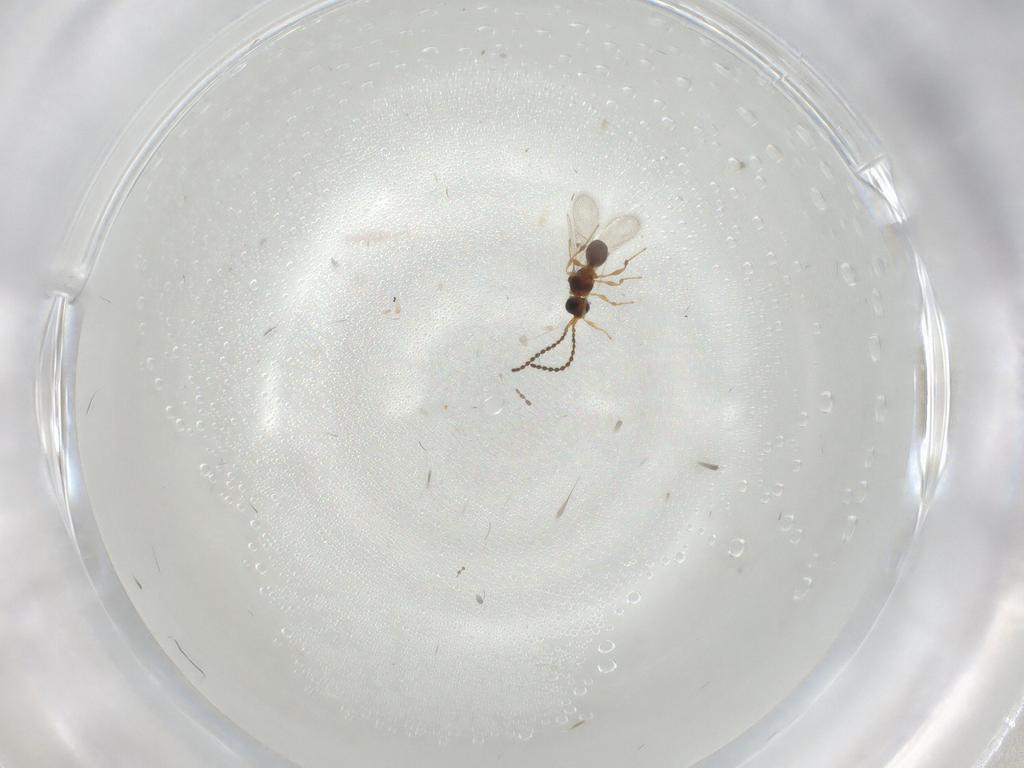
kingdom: Animalia
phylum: Arthropoda
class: Insecta
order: Hymenoptera
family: Diapriidae
